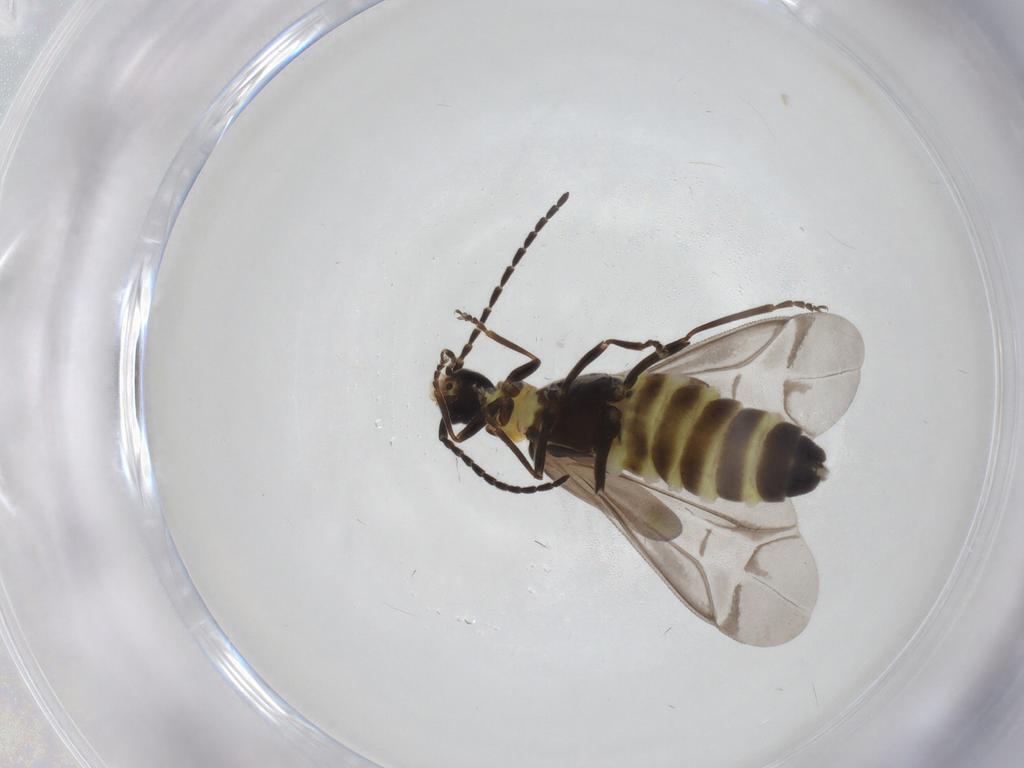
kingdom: Animalia
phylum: Arthropoda
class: Insecta
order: Coleoptera
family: Cantharidae
